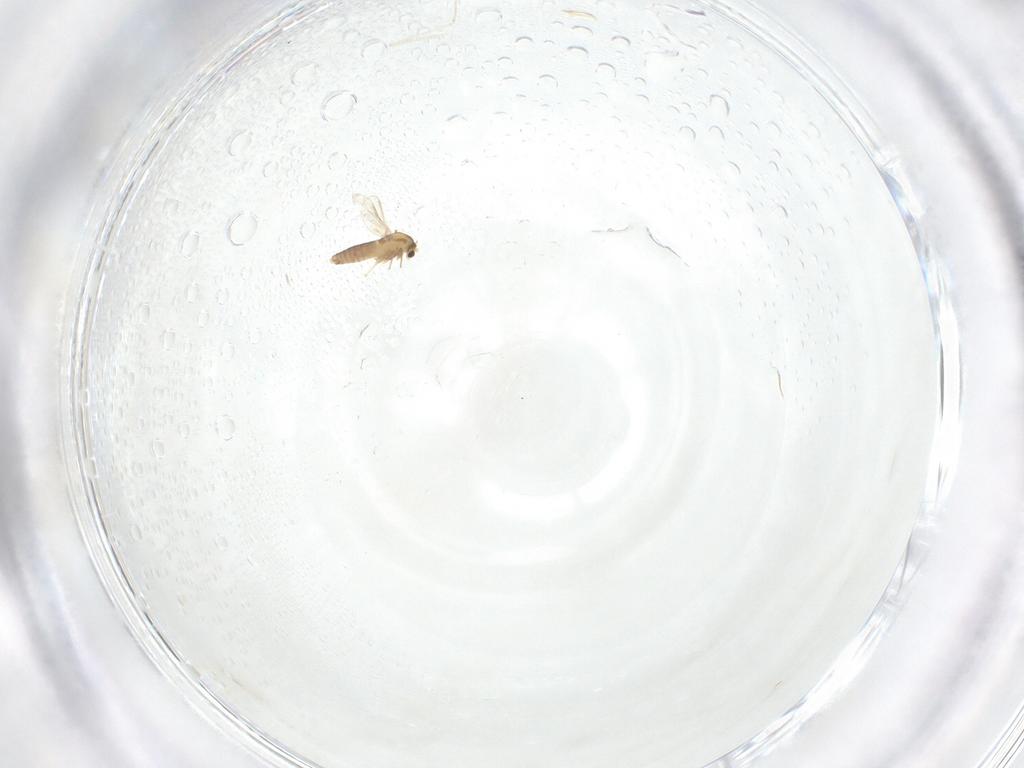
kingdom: Animalia
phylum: Arthropoda
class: Insecta
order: Diptera
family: Chironomidae
